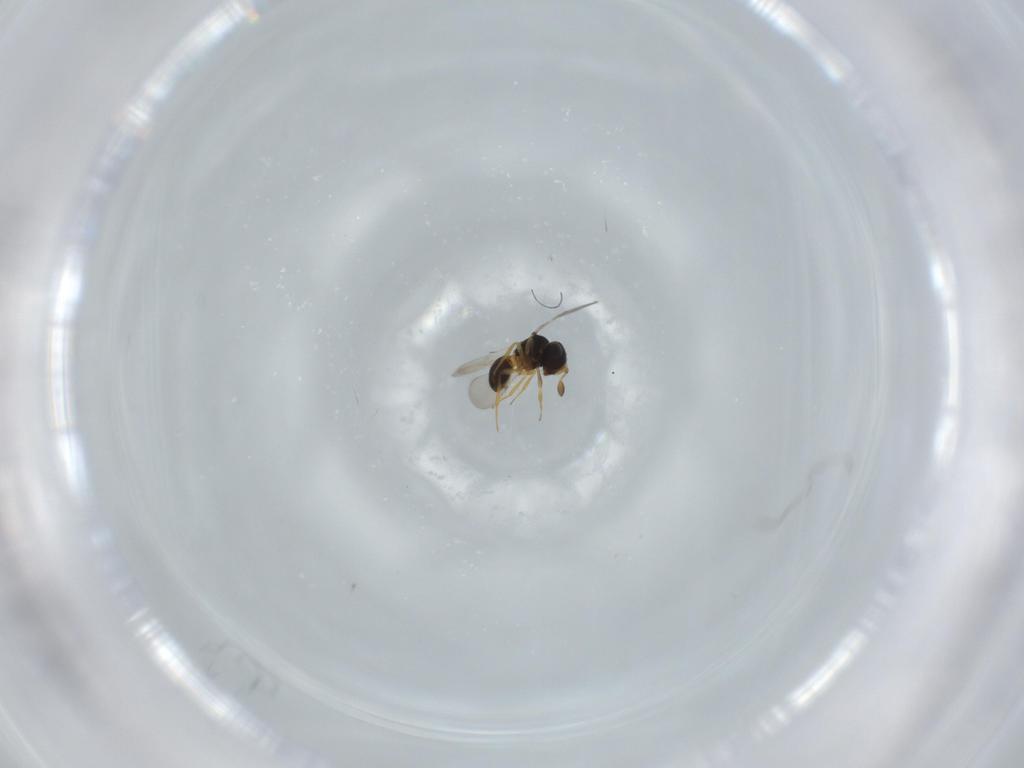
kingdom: Animalia
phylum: Arthropoda
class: Insecta
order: Hymenoptera
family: Scelionidae
